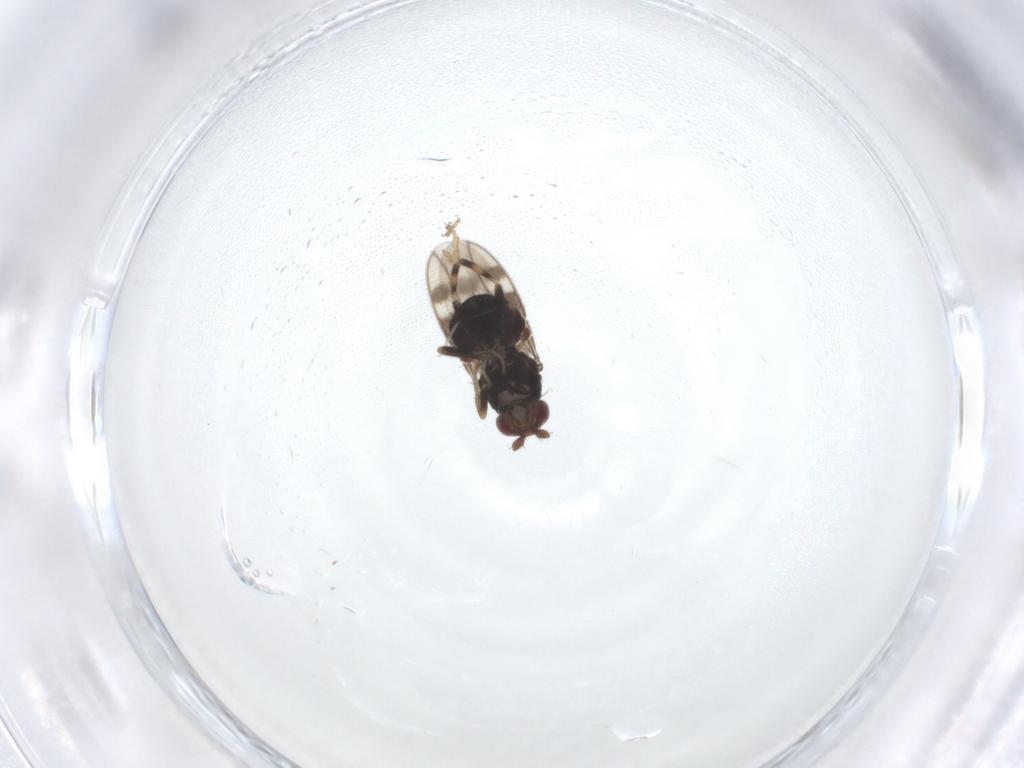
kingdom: Animalia
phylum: Arthropoda
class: Insecta
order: Diptera
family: Sphaeroceridae
